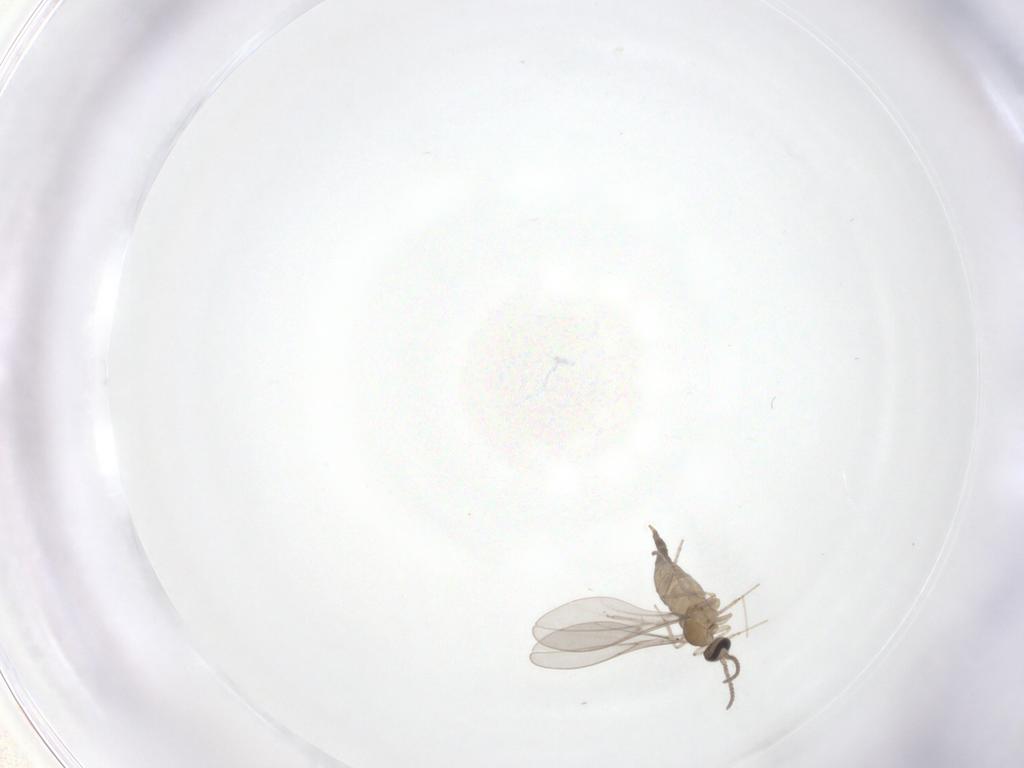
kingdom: Animalia
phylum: Arthropoda
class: Insecta
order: Diptera
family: Cecidomyiidae
